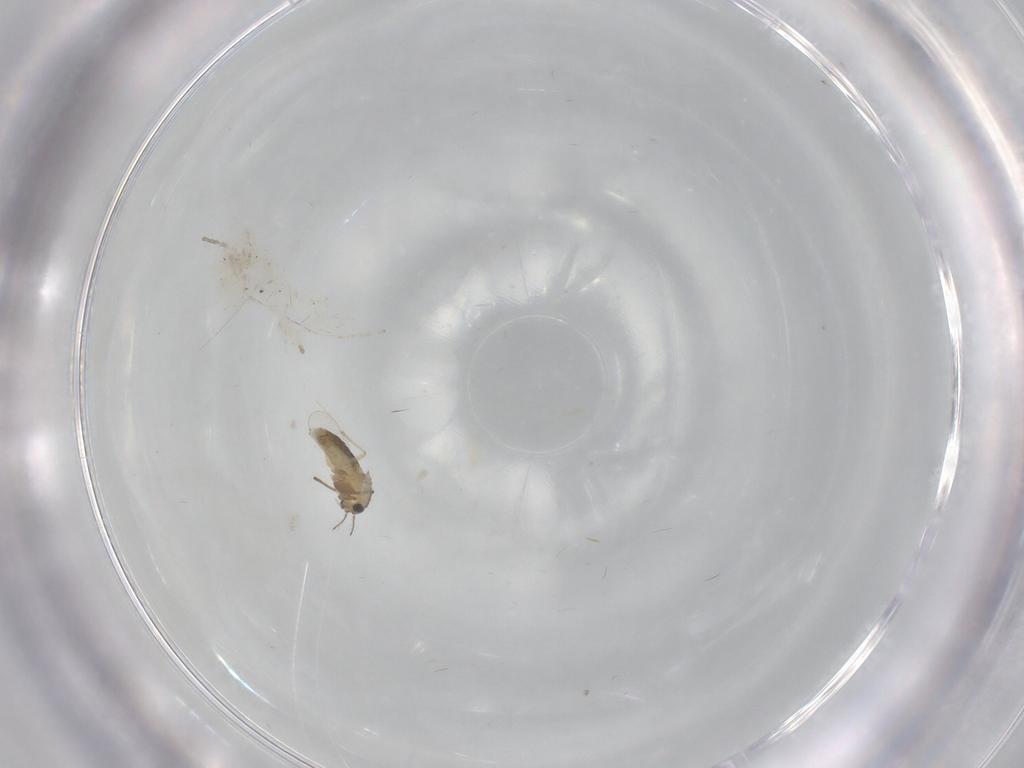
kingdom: Animalia
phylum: Arthropoda
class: Insecta
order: Diptera
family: Chironomidae
